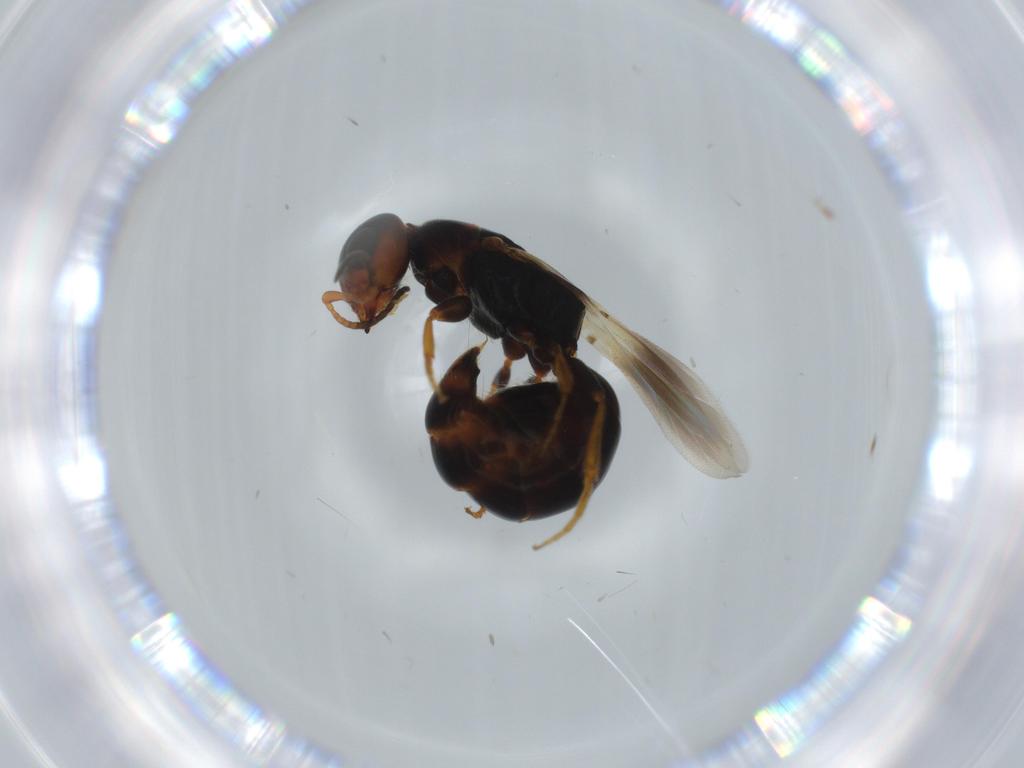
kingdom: Animalia
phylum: Arthropoda
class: Insecta
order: Hymenoptera
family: Bethylidae
